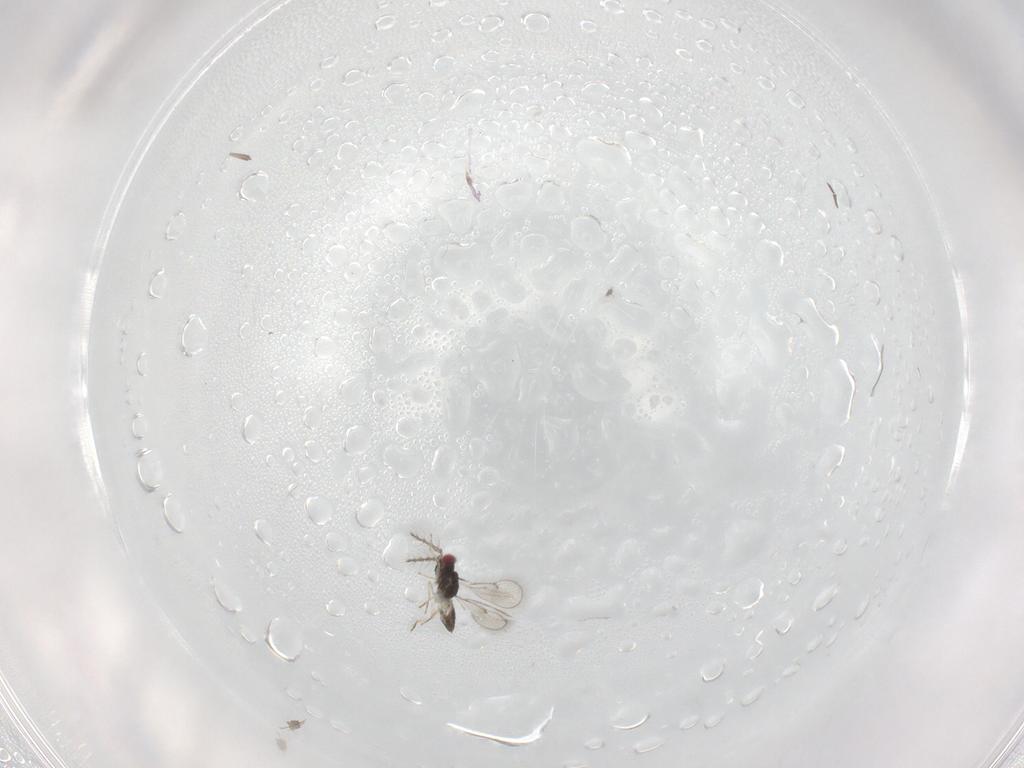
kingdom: Animalia
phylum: Arthropoda
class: Insecta
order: Hymenoptera
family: Eulophidae
